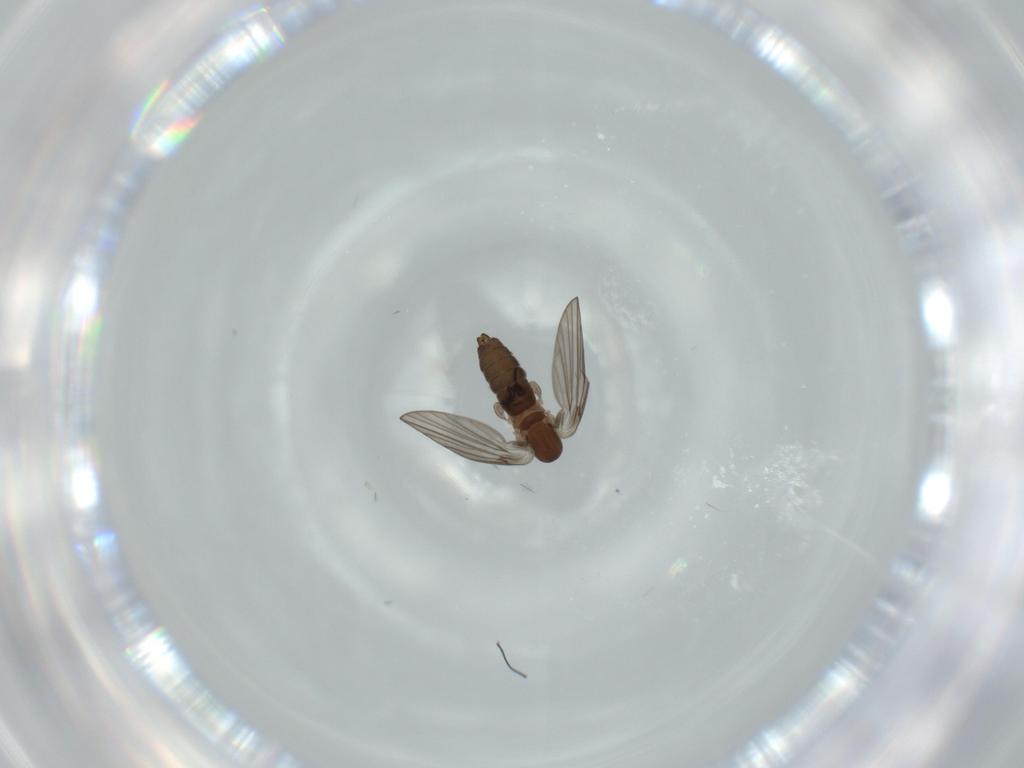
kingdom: Animalia
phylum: Arthropoda
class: Insecta
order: Diptera
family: Psychodidae
